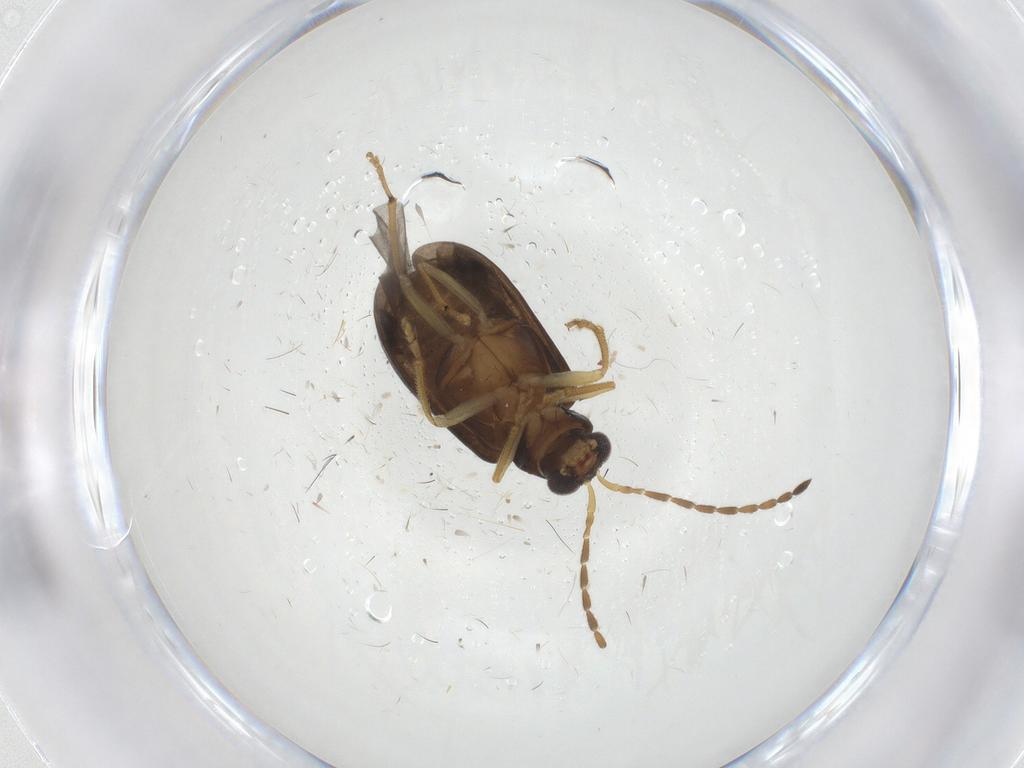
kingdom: Animalia
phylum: Arthropoda
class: Insecta
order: Coleoptera
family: Chrysomelidae
